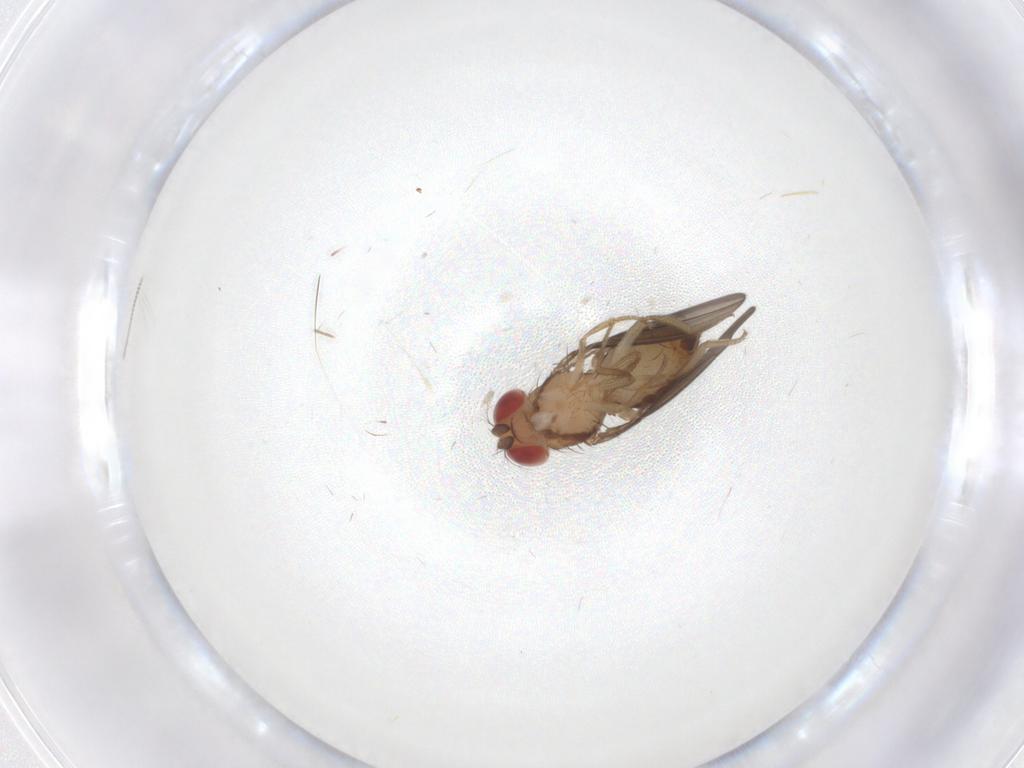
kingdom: Animalia
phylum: Arthropoda
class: Insecta
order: Diptera
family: Drosophilidae
